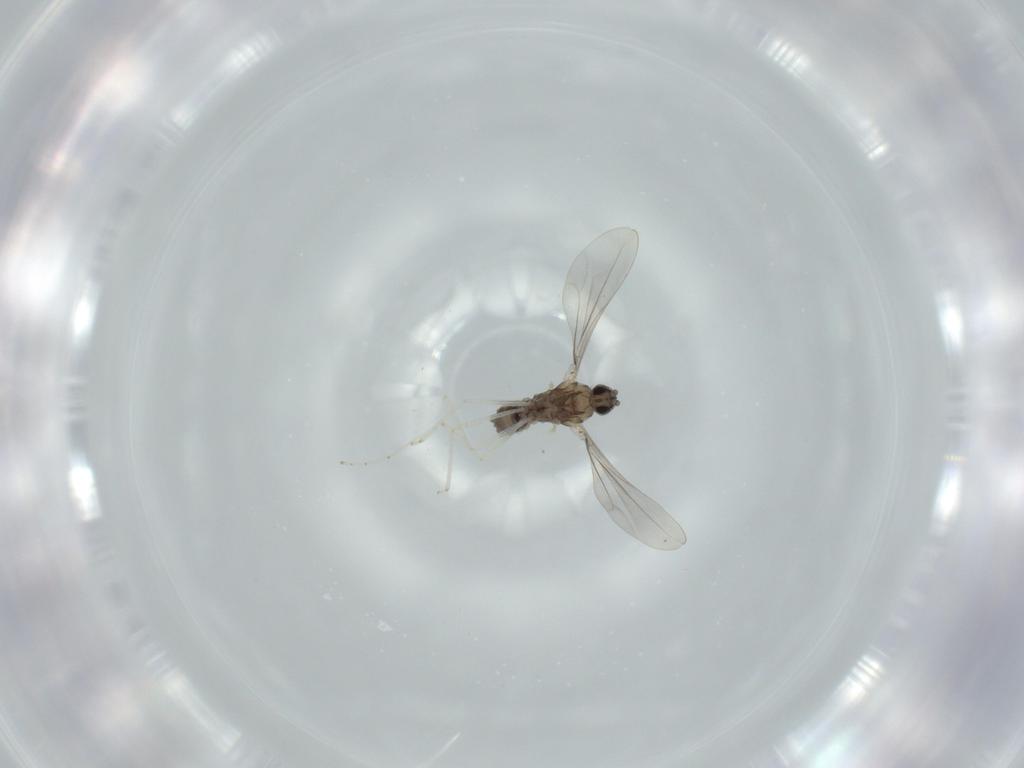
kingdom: Animalia
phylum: Arthropoda
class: Insecta
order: Diptera
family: Cecidomyiidae
